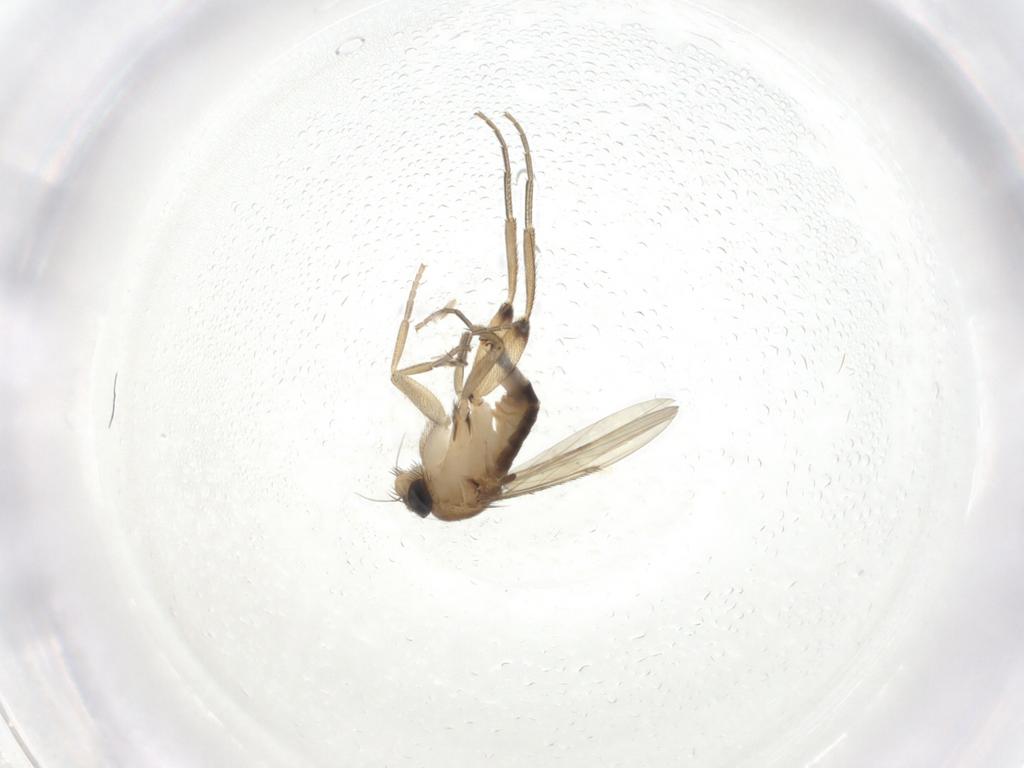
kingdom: Animalia
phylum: Arthropoda
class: Insecta
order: Diptera
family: Phoridae
